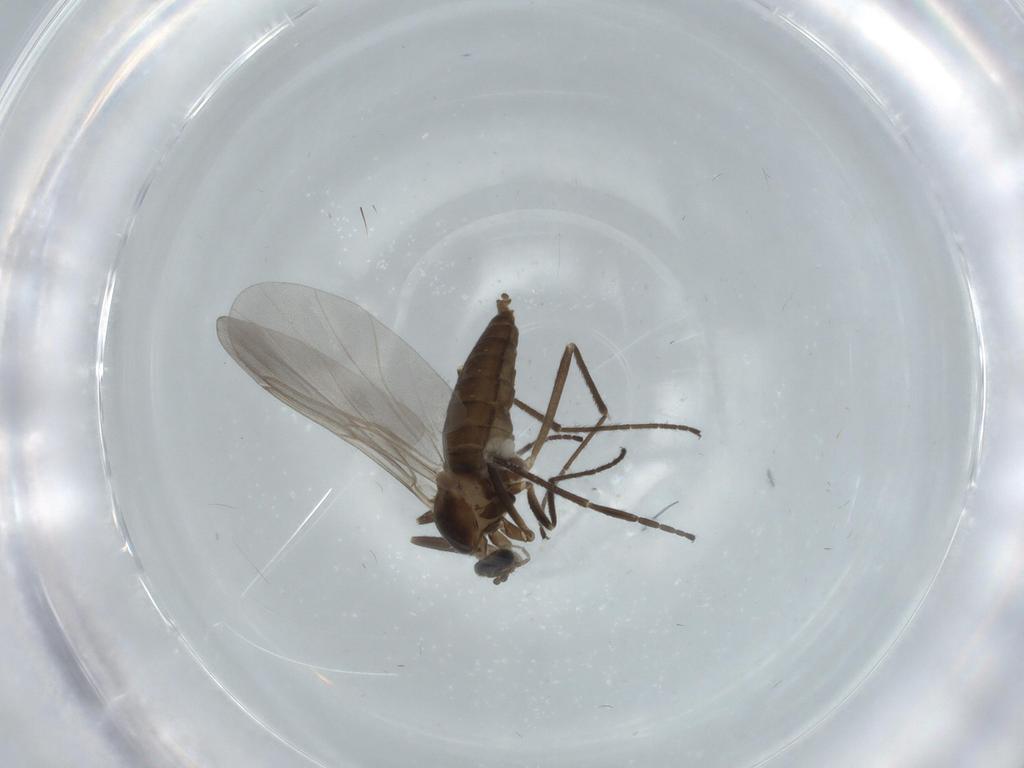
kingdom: Animalia
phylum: Arthropoda
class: Insecta
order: Diptera
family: Cecidomyiidae
